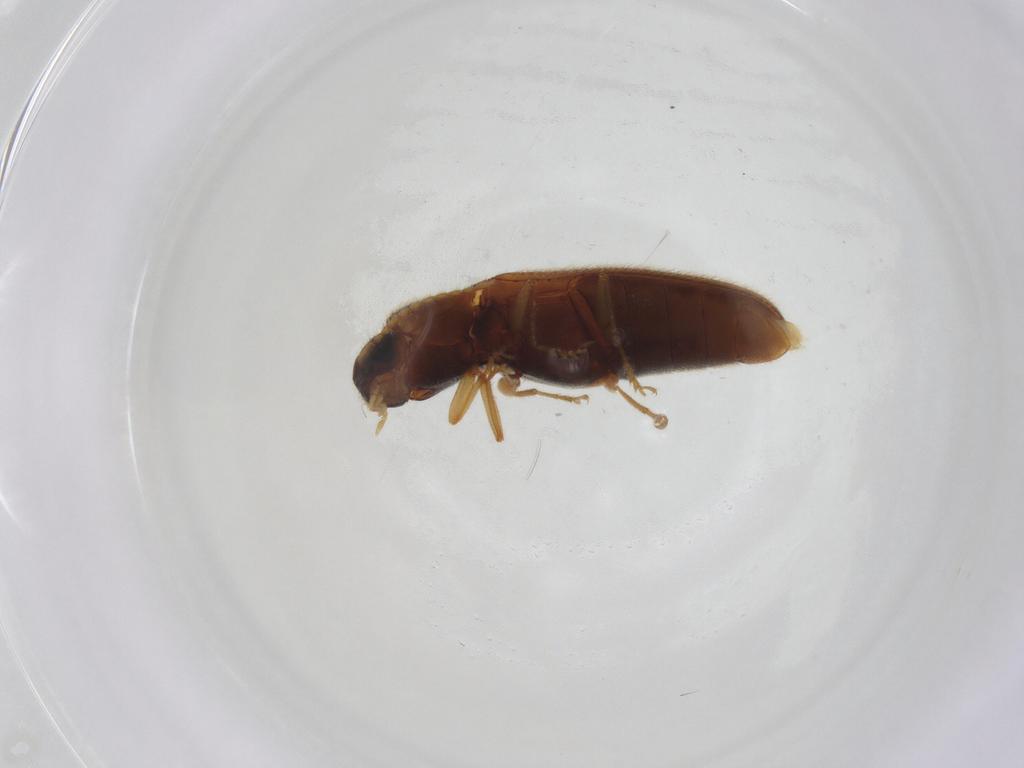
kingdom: Animalia
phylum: Arthropoda
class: Insecta
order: Coleoptera
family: Elateridae
